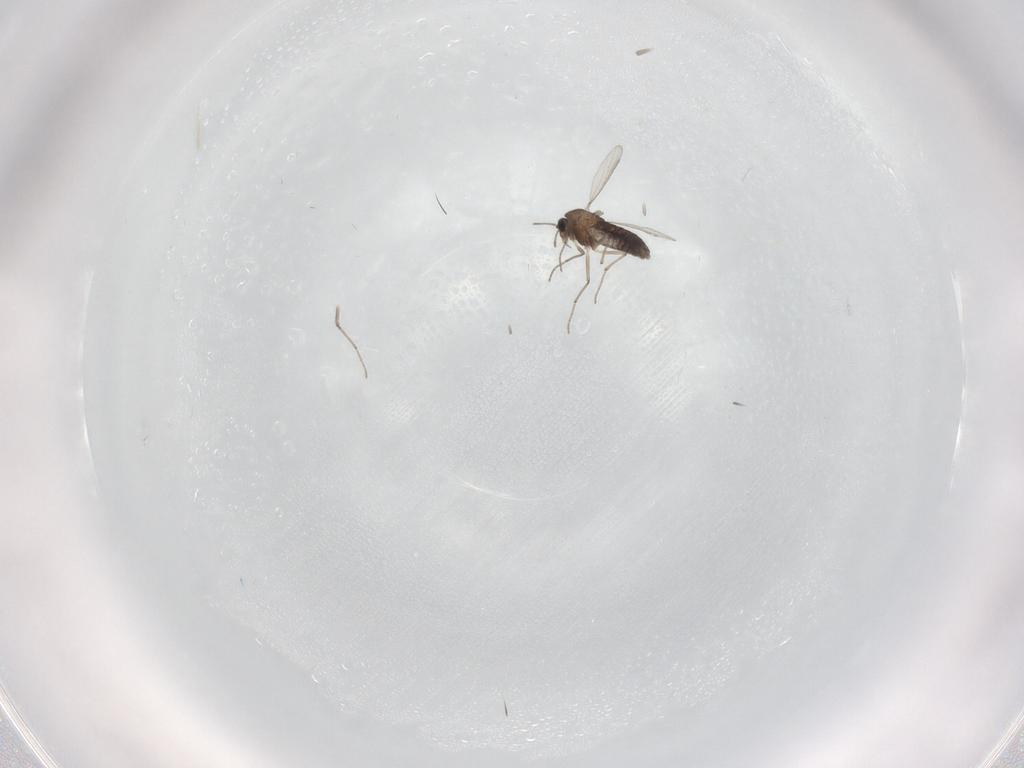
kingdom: Animalia
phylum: Arthropoda
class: Insecta
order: Diptera
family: Chironomidae
